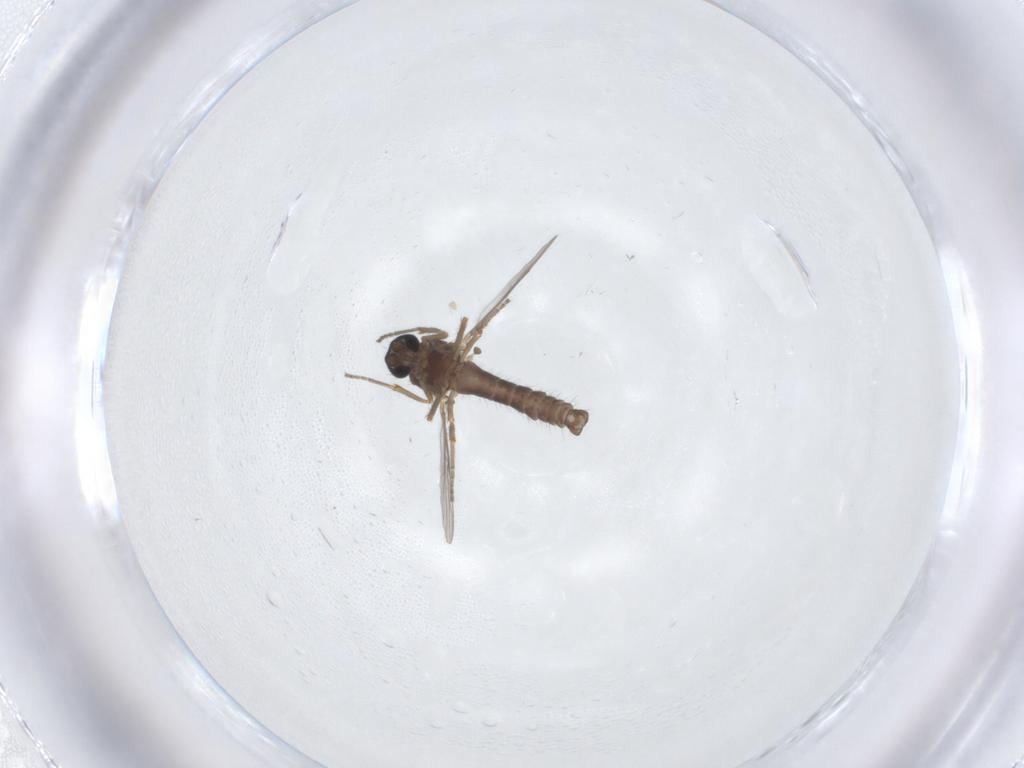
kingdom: Animalia
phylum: Arthropoda
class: Insecta
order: Diptera
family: Ceratopogonidae
